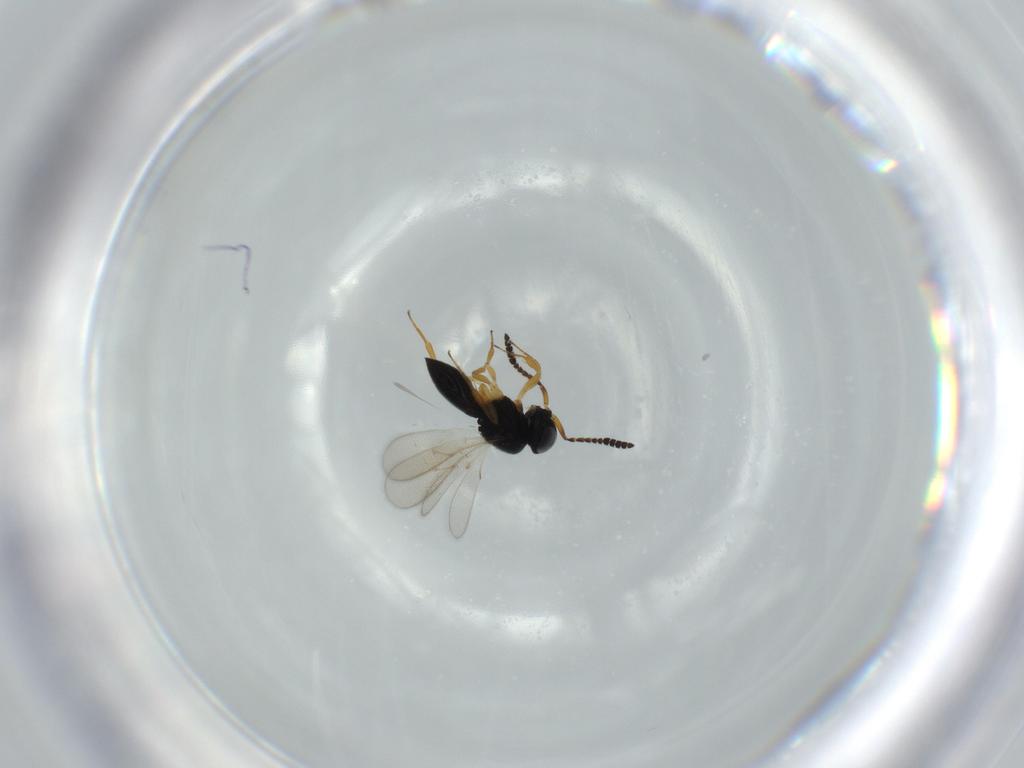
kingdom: Animalia
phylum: Arthropoda
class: Insecta
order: Hymenoptera
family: Scelionidae
